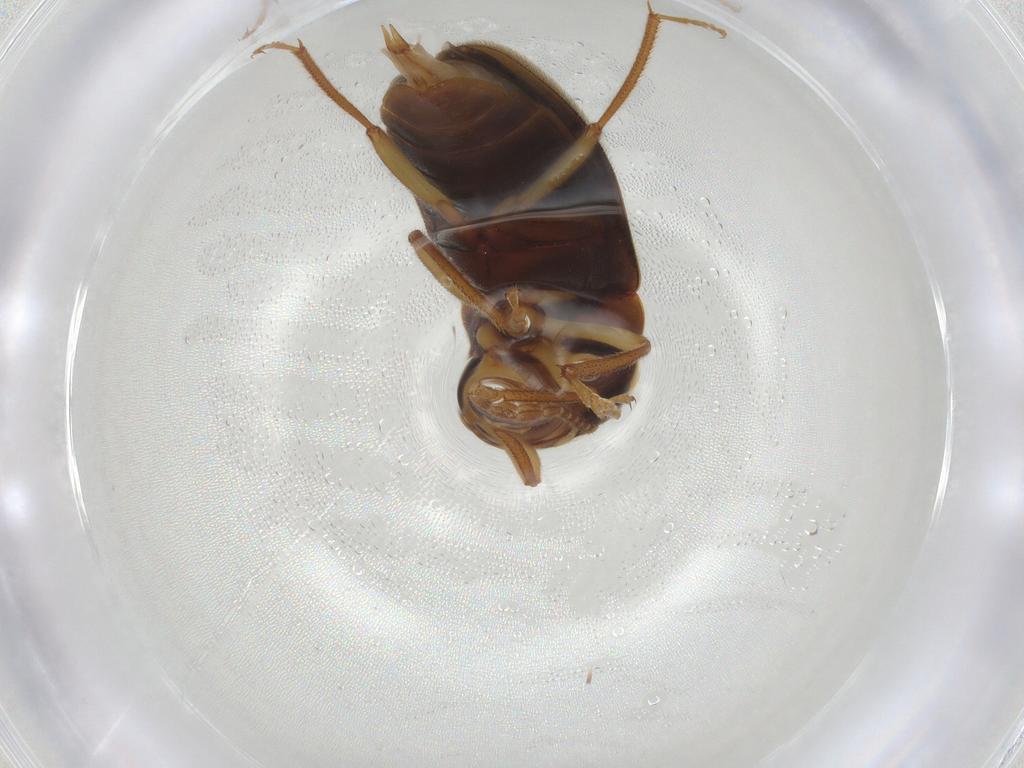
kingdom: Animalia
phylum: Arthropoda
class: Insecta
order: Coleoptera
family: Ptilodactylidae
